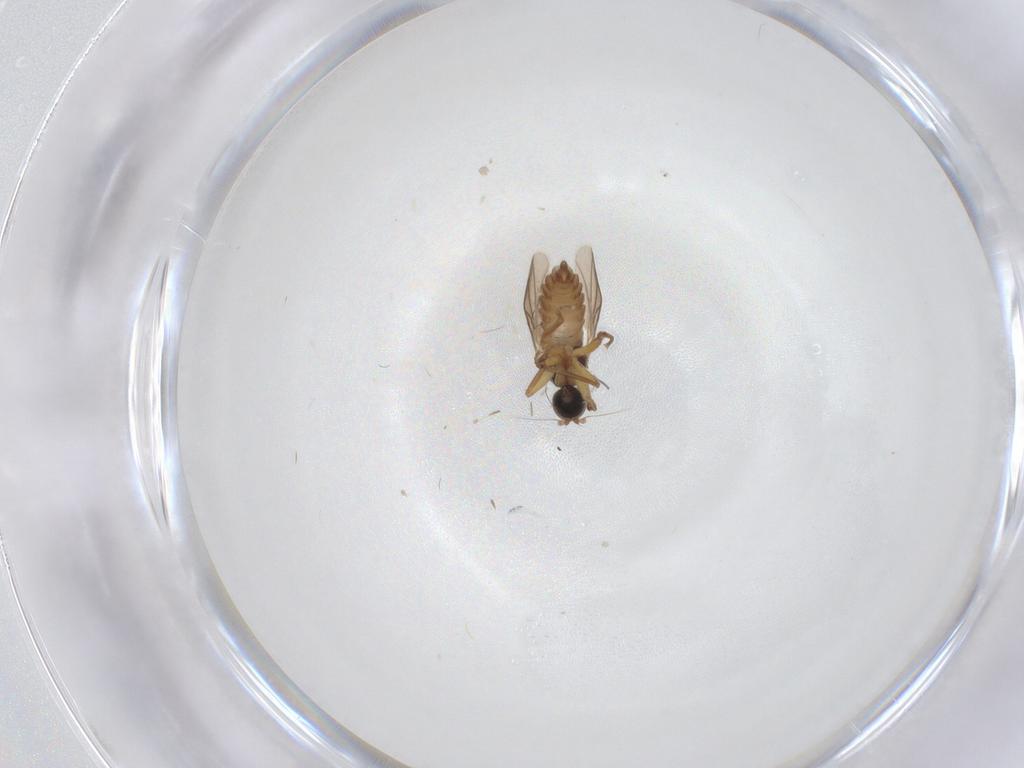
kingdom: Animalia
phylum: Arthropoda
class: Insecta
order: Diptera
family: Hybotidae
